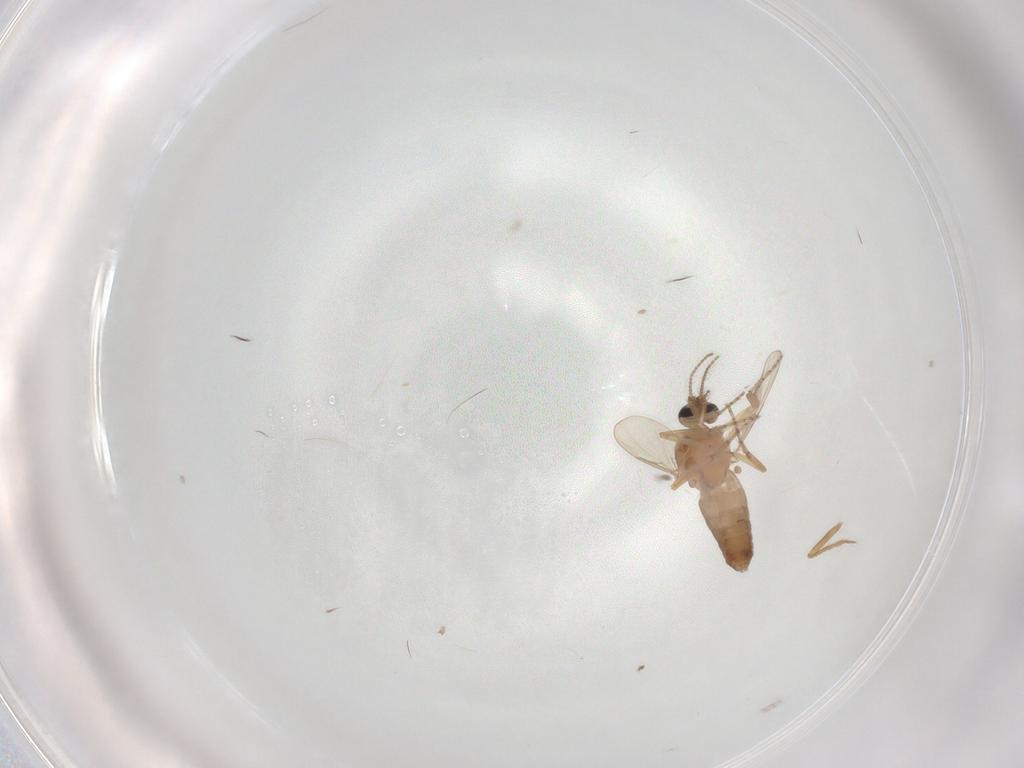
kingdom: Animalia
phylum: Arthropoda
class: Insecta
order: Diptera
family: Ceratopogonidae
